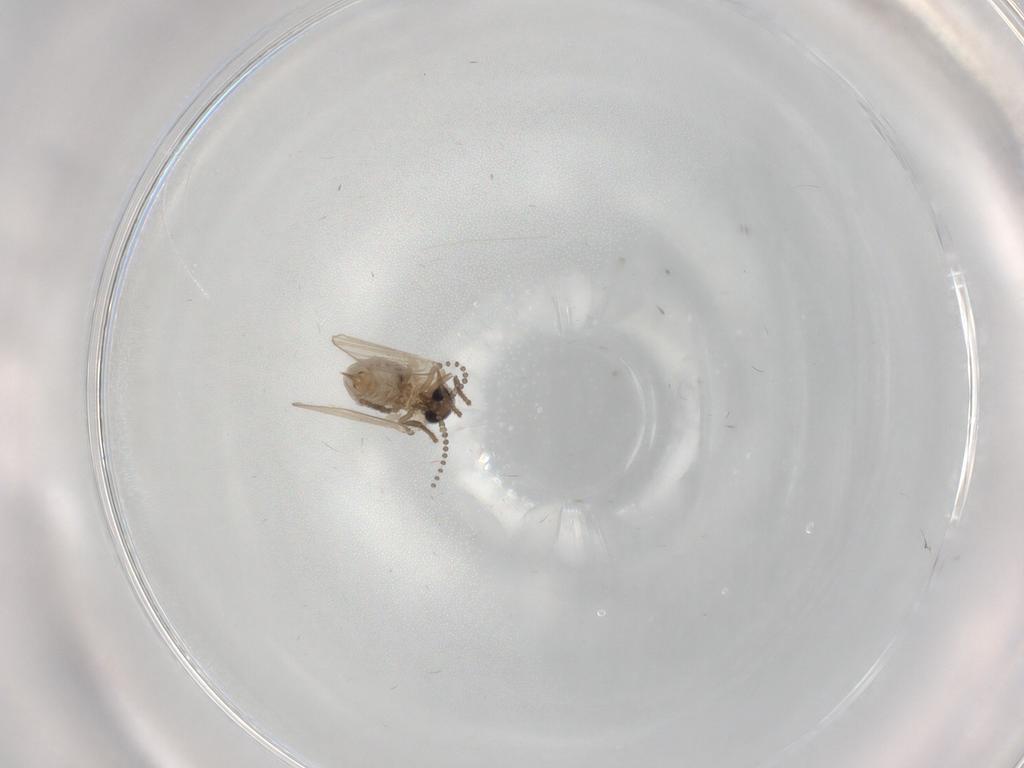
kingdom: Animalia
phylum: Arthropoda
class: Insecta
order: Diptera
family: Psychodidae
